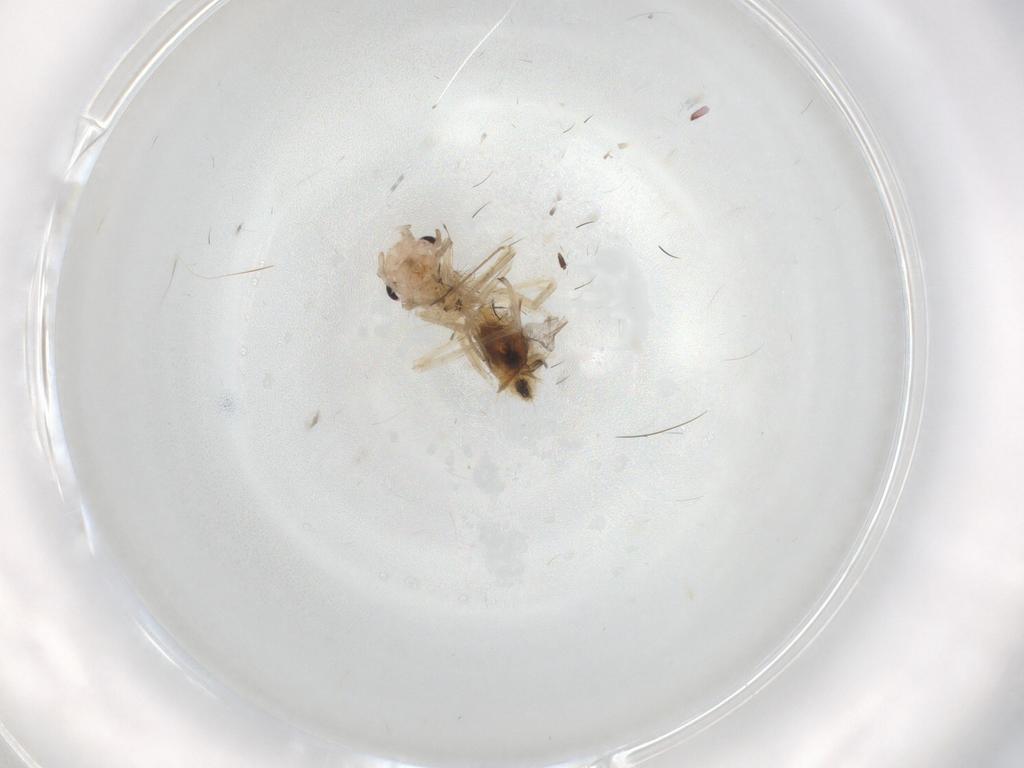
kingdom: Animalia
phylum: Arthropoda
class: Insecta
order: Psocodea
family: Caeciliusidae
